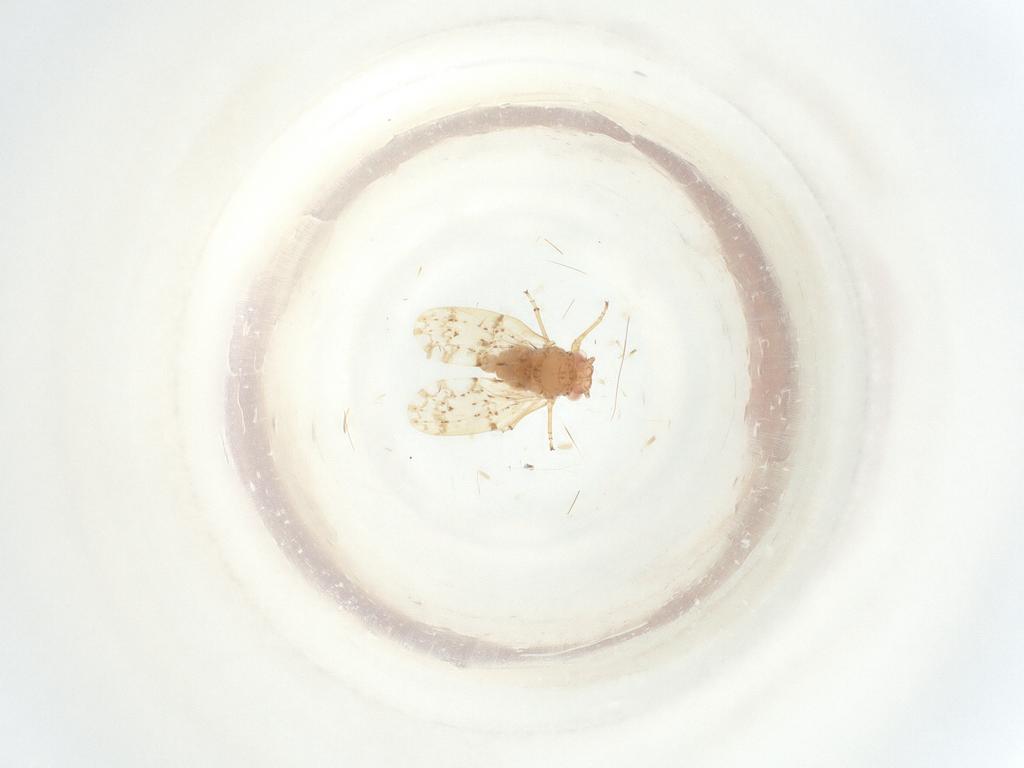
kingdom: Animalia
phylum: Arthropoda
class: Insecta
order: Diptera
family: Sciaridae
